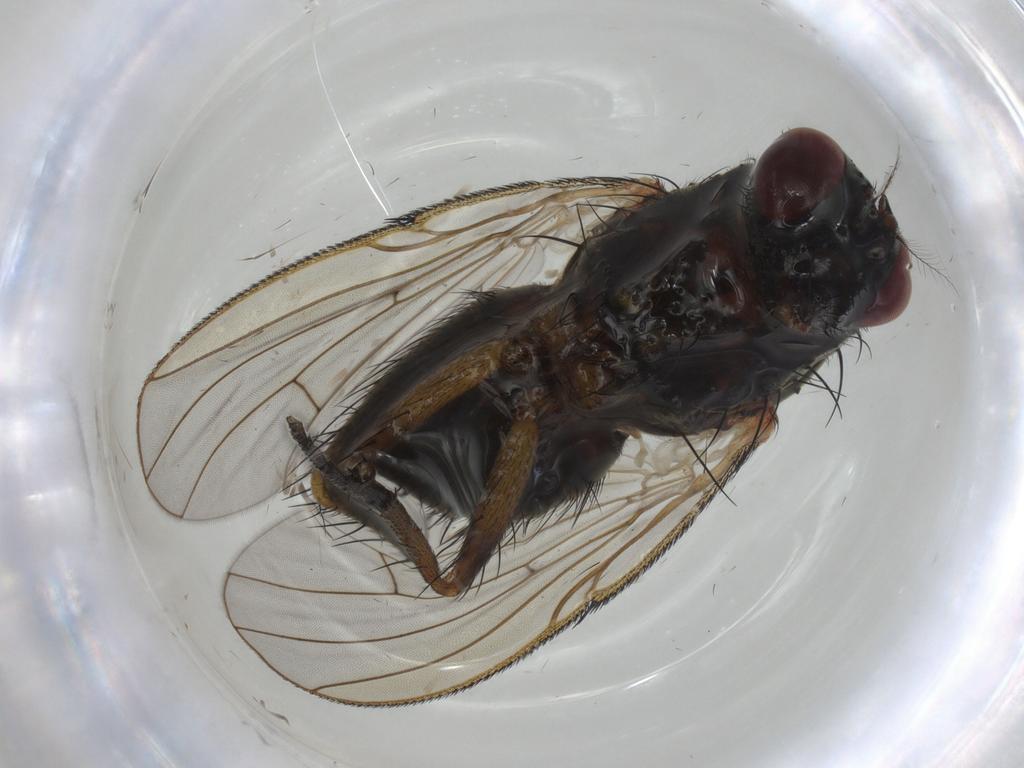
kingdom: Animalia
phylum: Arthropoda
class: Insecta
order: Diptera
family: Muscidae
